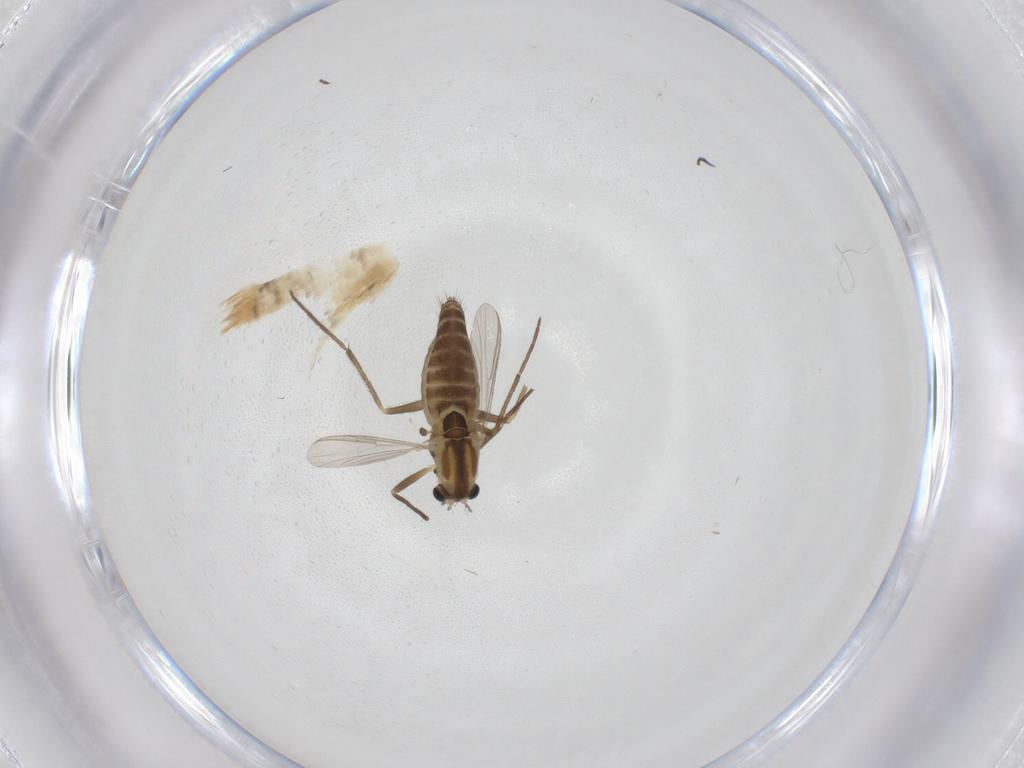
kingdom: Animalia
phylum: Arthropoda
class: Insecta
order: Diptera
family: Chironomidae
